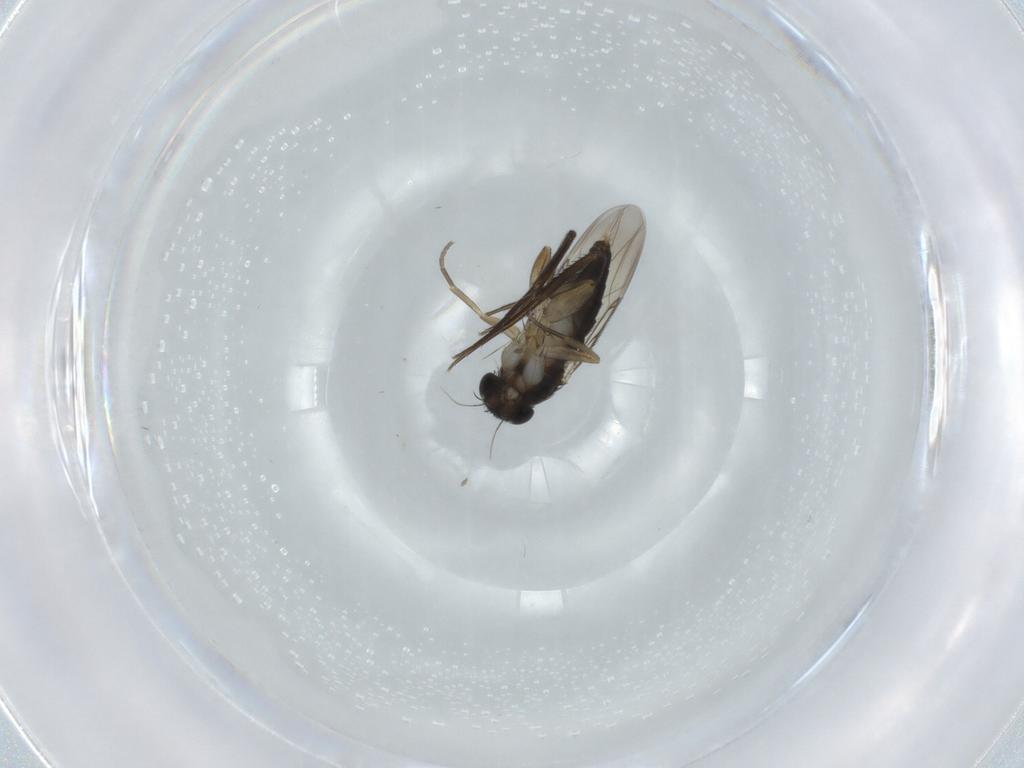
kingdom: Animalia
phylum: Arthropoda
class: Insecta
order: Diptera
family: Phoridae
